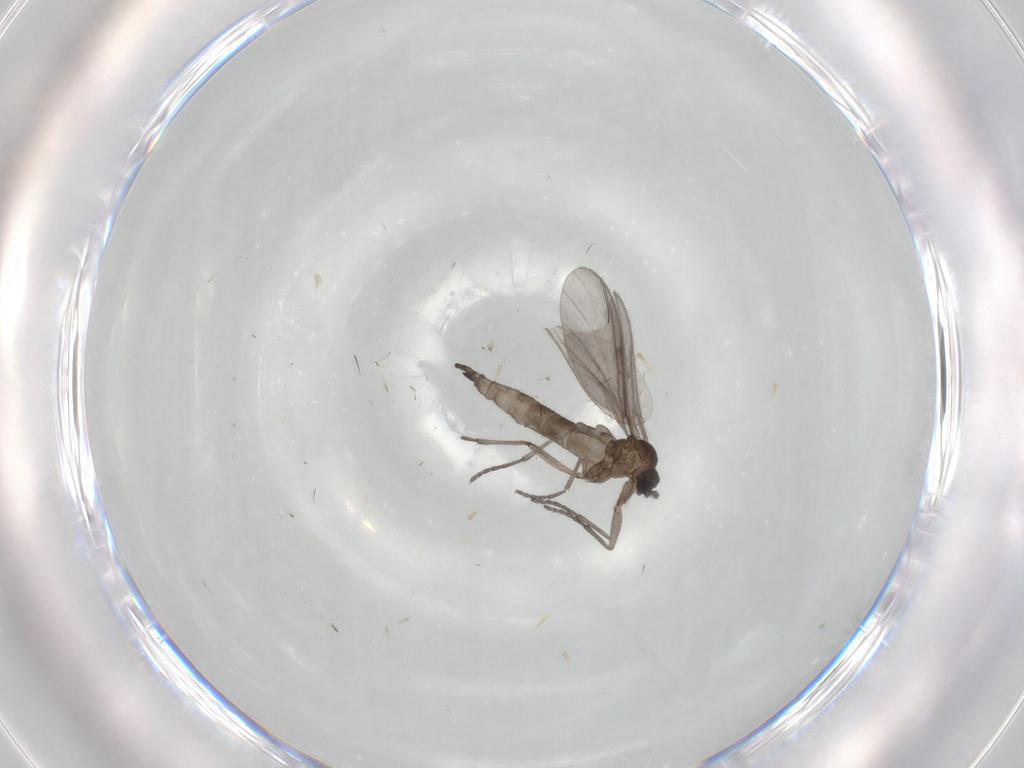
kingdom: Animalia
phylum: Arthropoda
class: Insecta
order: Diptera
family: Sciaridae
